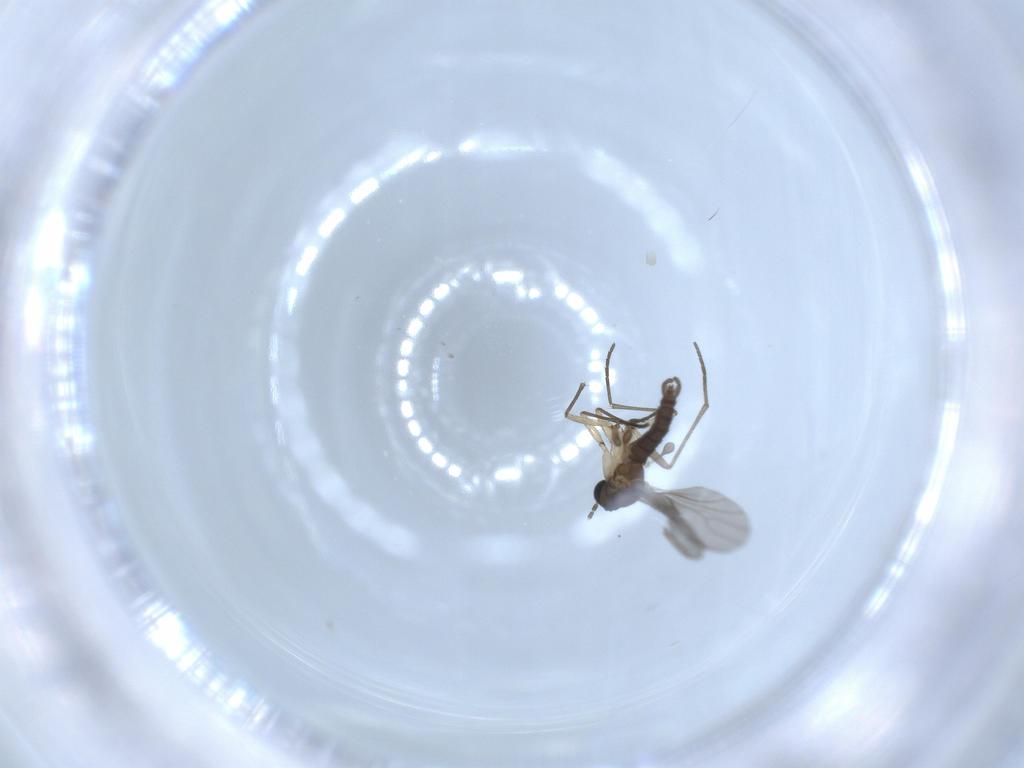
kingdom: Animalia
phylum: Arthropoda
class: Insecta
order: Diptera
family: Sciaridae
